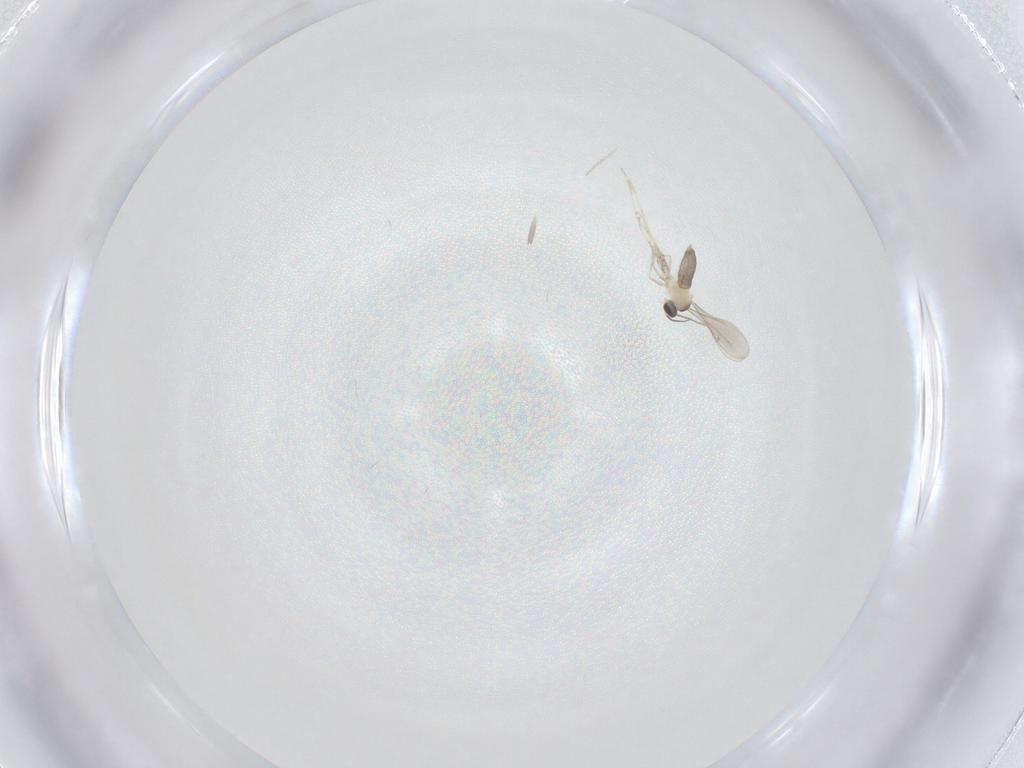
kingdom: Animalia
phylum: Arthropoda
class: Insecta
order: Diptera
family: Cecidomyiidae
